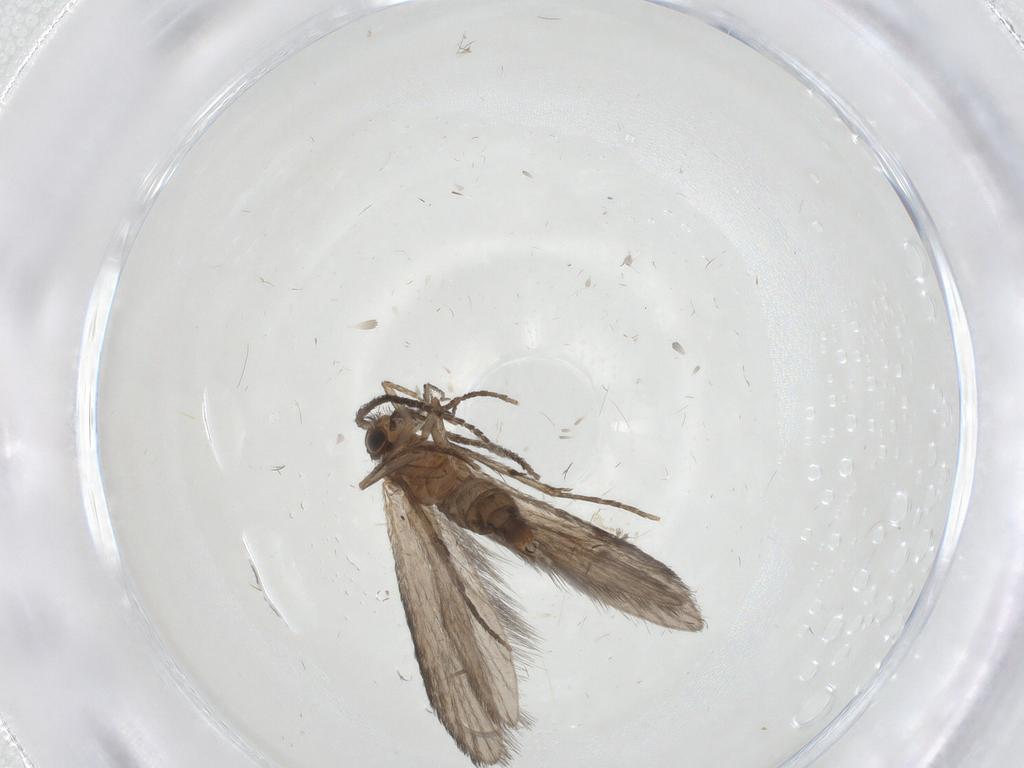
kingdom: Animalia
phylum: Arthropoda
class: Insecta
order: Trichoptera
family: Xiphocentronidae
